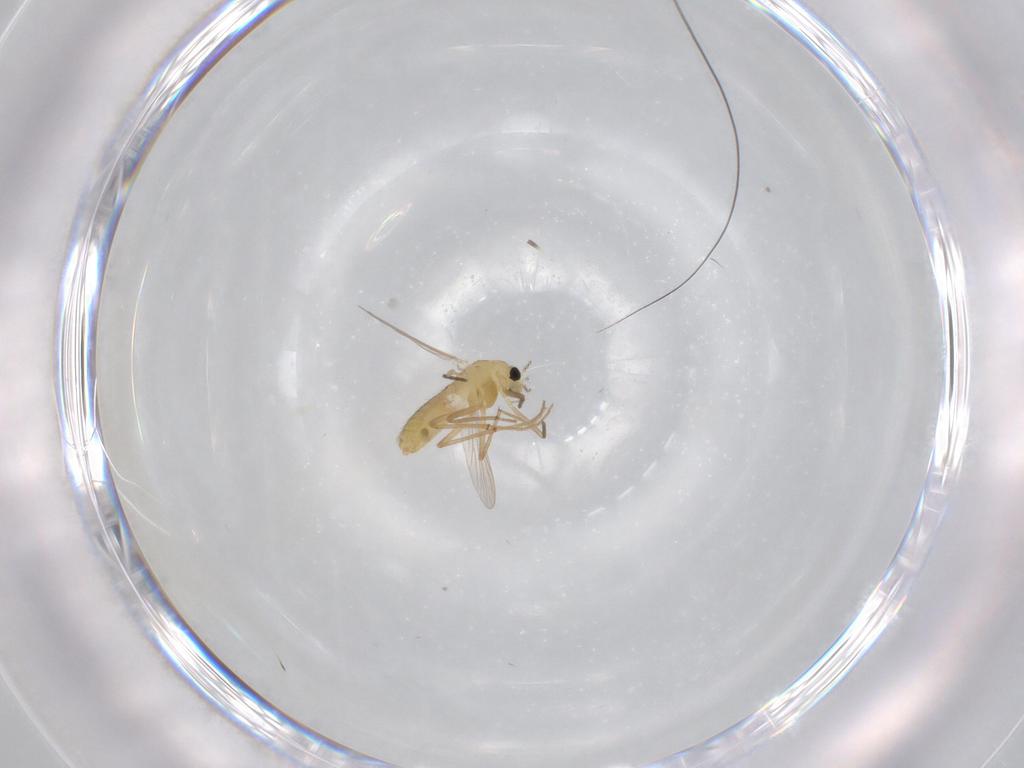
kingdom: Animalia
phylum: Arthropoda
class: Insecta
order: Diptera
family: Chironomidae
